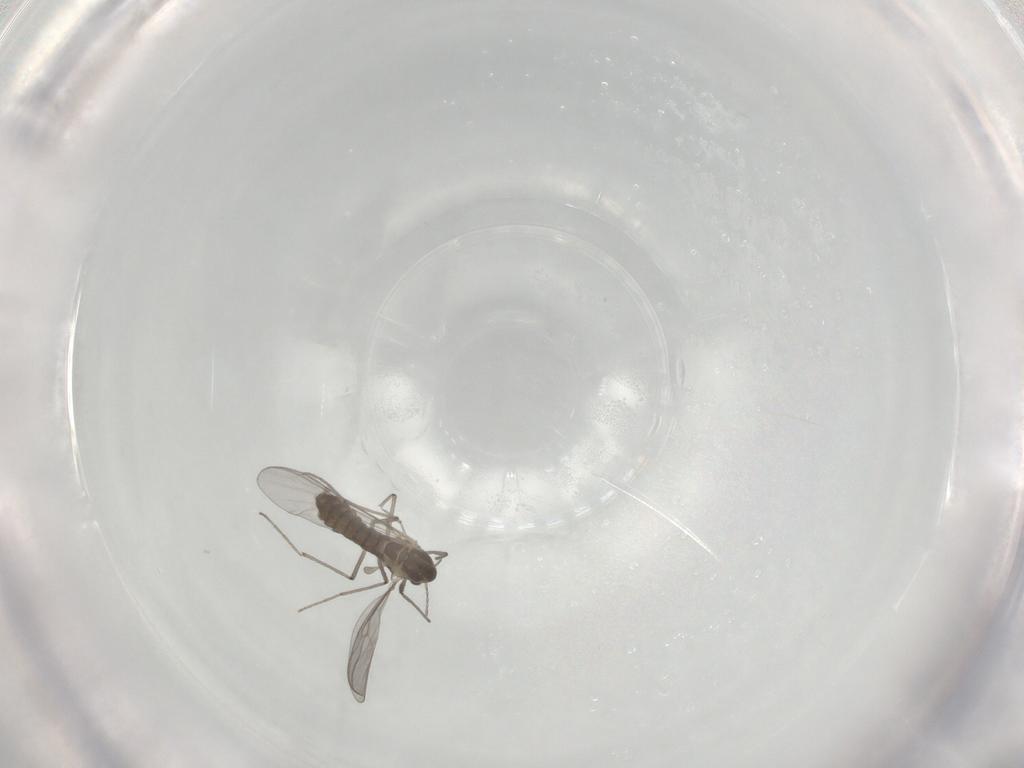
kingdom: Animalia
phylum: Arthropoda
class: Insecta
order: Diptera
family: Chironomidae
